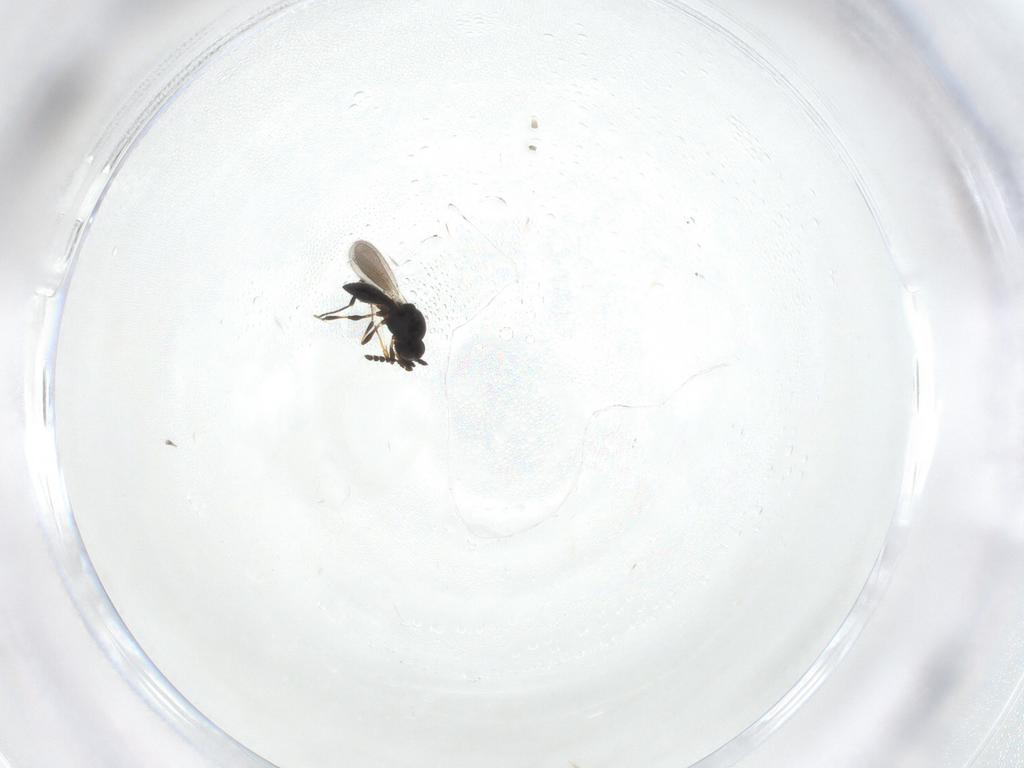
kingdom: Animalia
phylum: Arthropoda
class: Insecta
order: Hymenoptera
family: Platygastridae
